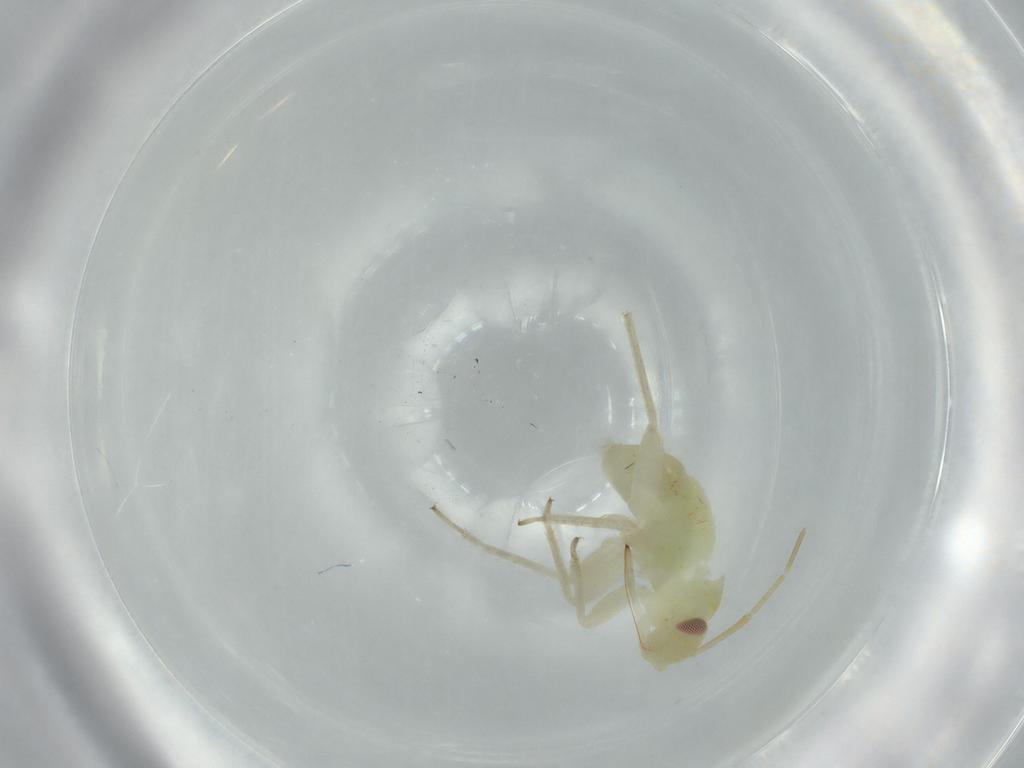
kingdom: Animalia
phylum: Arthropoda
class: Insecta
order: Hemiptera
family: Miridae
